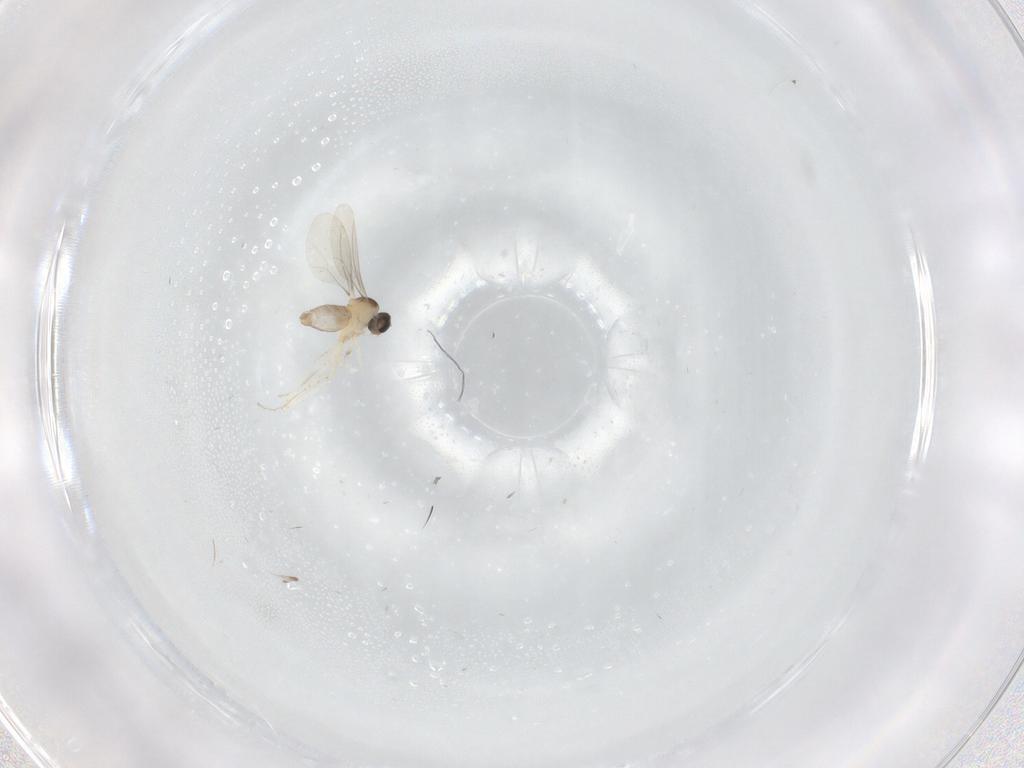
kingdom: Animalia
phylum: Arthropoda
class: Insecta
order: Diptera
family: Cecidomyiidae
